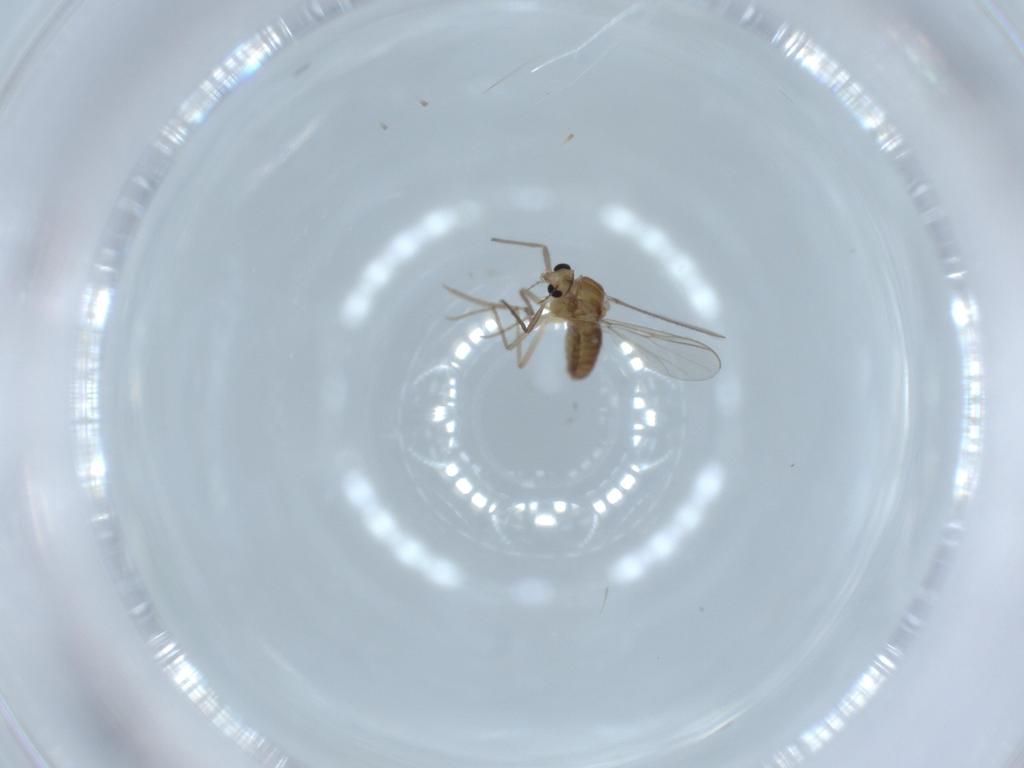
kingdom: Animalia
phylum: Arthropoda
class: Insecta
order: Diptera
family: Chironomidae
